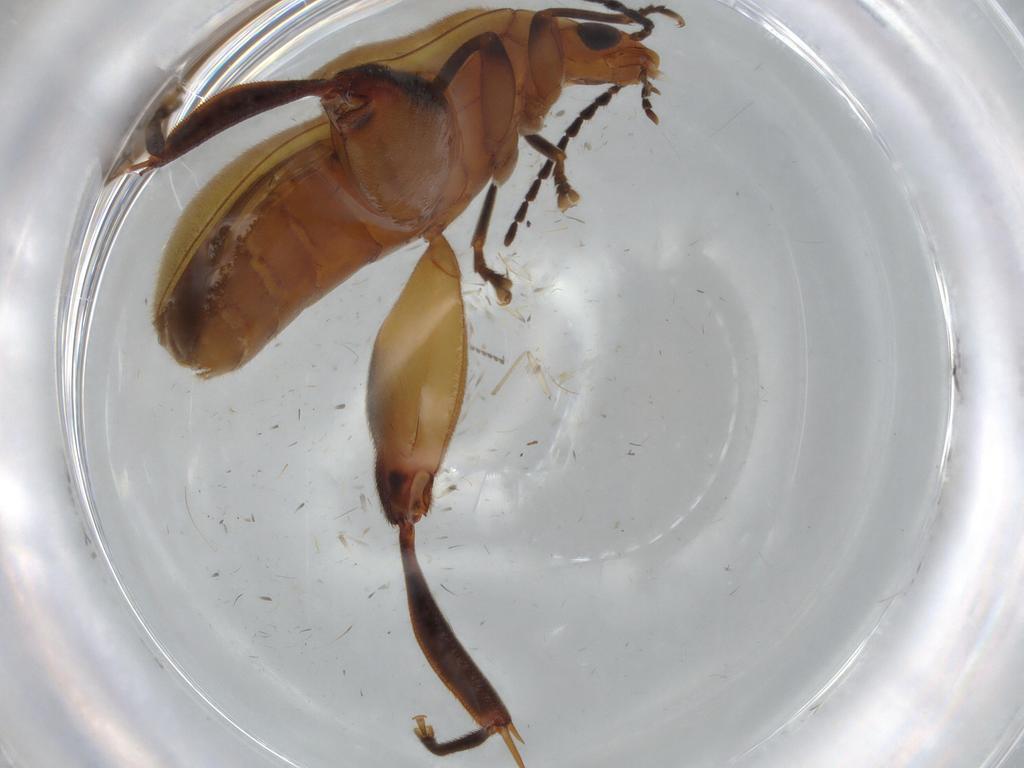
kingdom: Animalia
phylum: Arthropoda
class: Insecta
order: Coleoptera
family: Scirtidae
